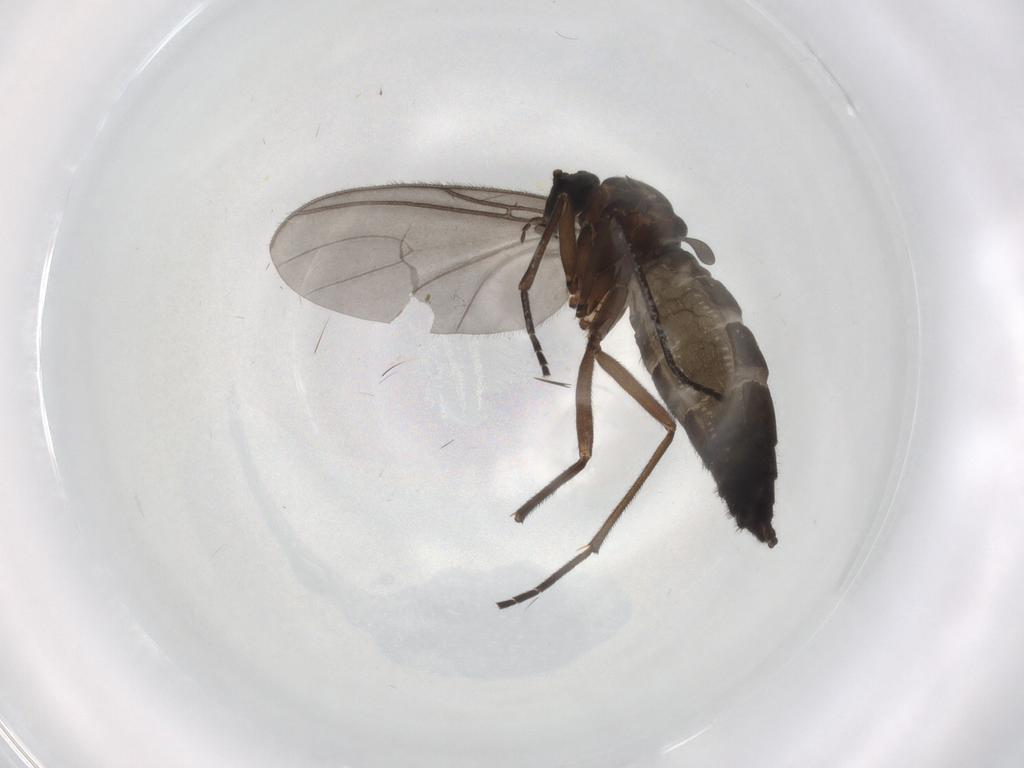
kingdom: Animalia
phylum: Arthropoda
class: Insecta
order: Diptera
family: Sciaridae
